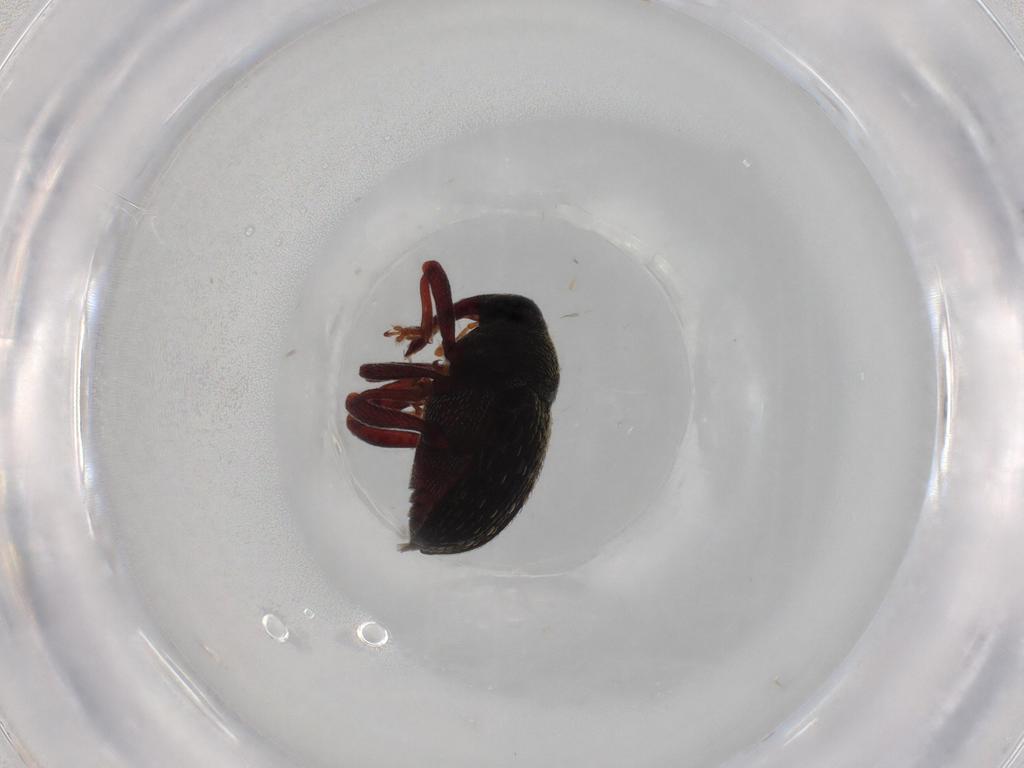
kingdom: Animalia
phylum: Arthropoda
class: Insecta
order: Coleoptera
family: Curculionidae
